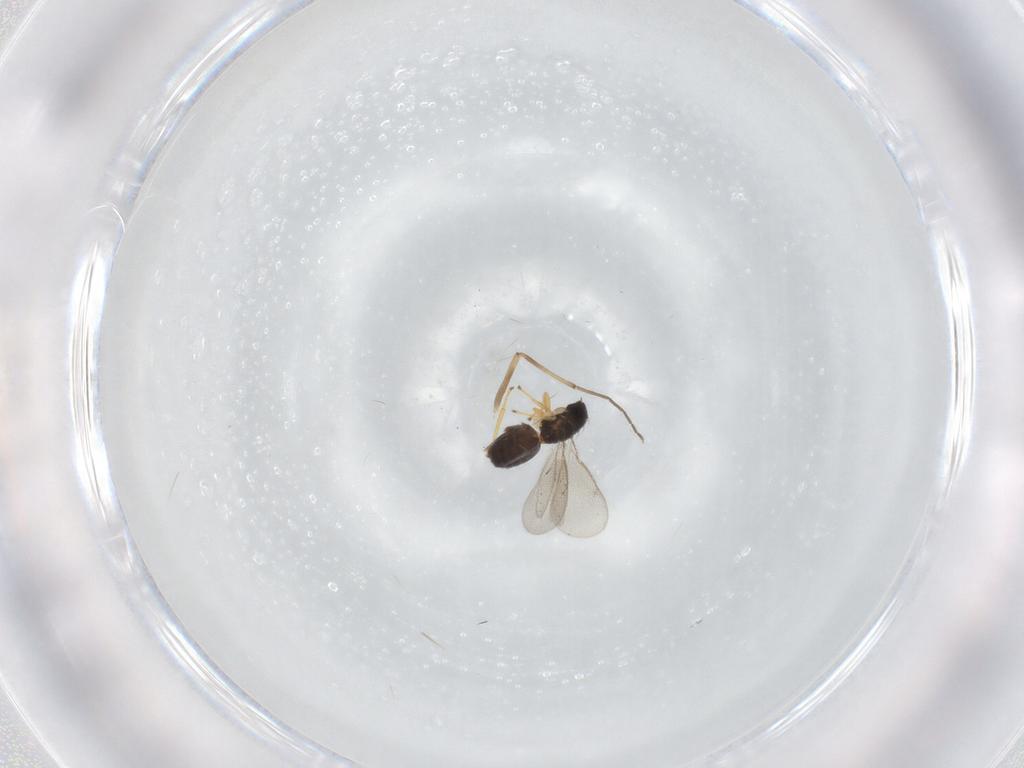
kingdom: Animalia
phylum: Arthropoda
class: Insecta
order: Hymenoptera
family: Eulophidae
